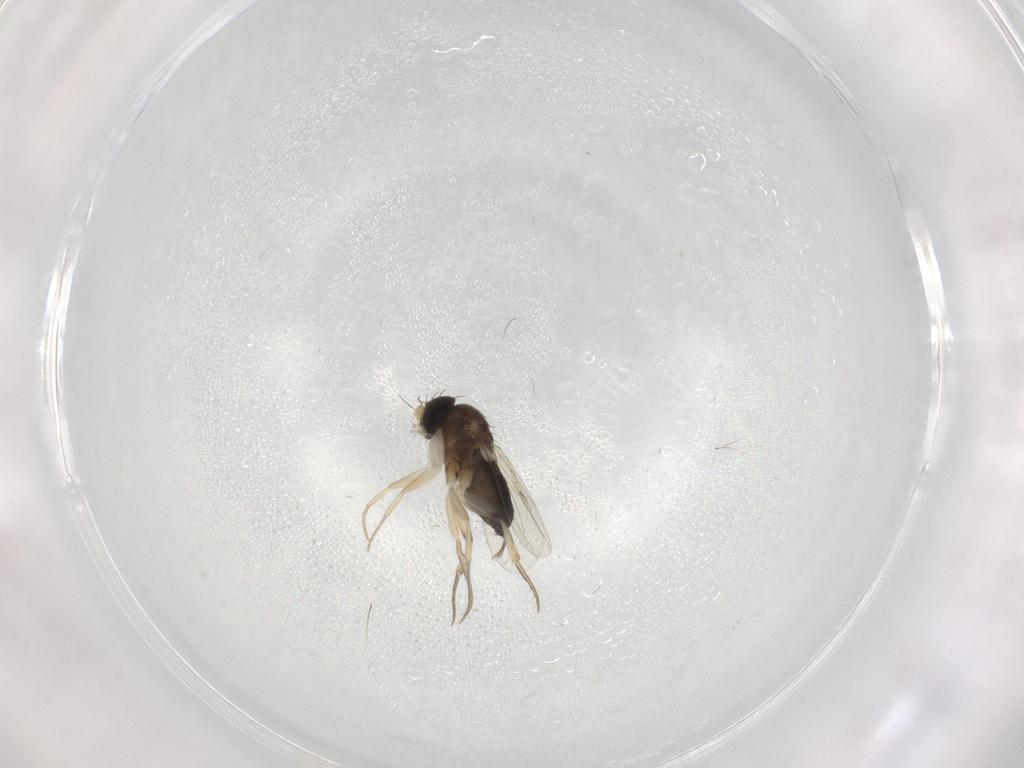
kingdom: Animalia
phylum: Arthropoda
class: Insecta
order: Diptera
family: Phoridae
